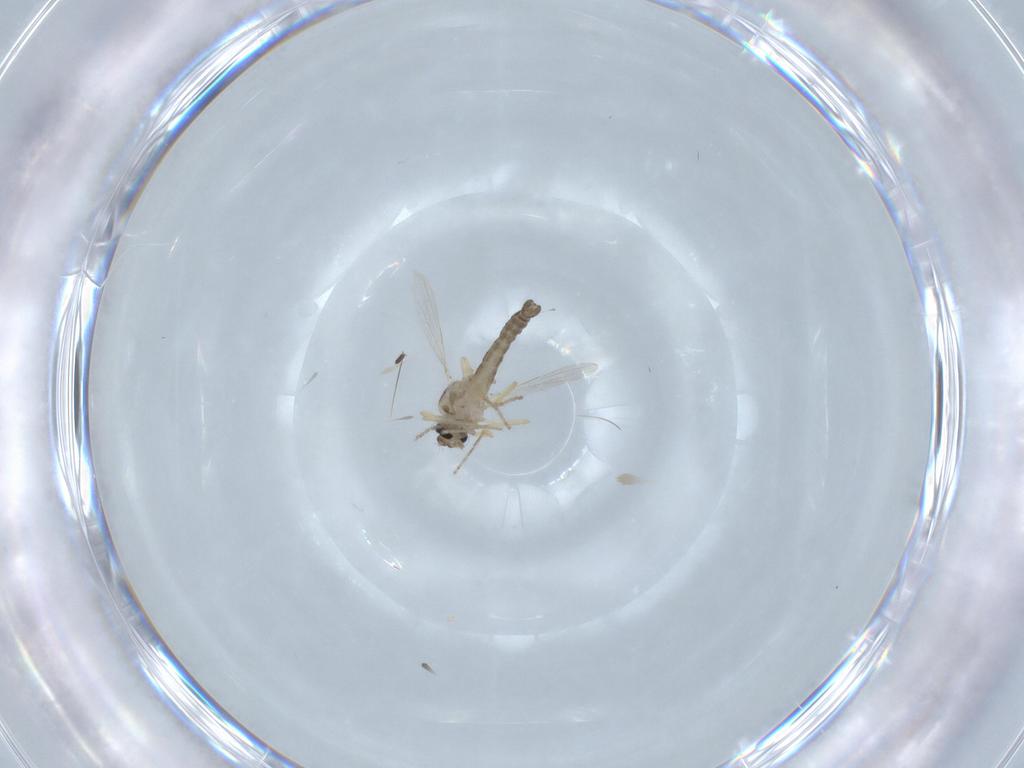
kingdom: Animalia
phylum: Arthropoda
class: Insecta
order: Diptera
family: Ceratopogonidae
